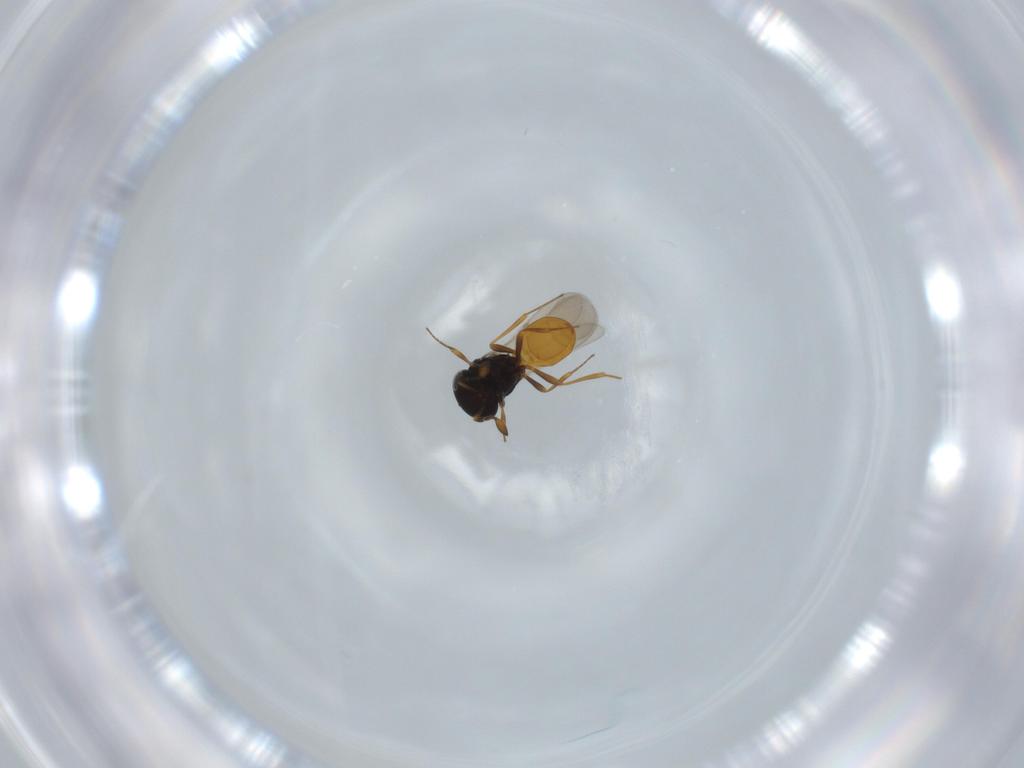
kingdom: Animalia
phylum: Arthropoda
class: Insecta
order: Hymenoptera
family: Scelionidae
